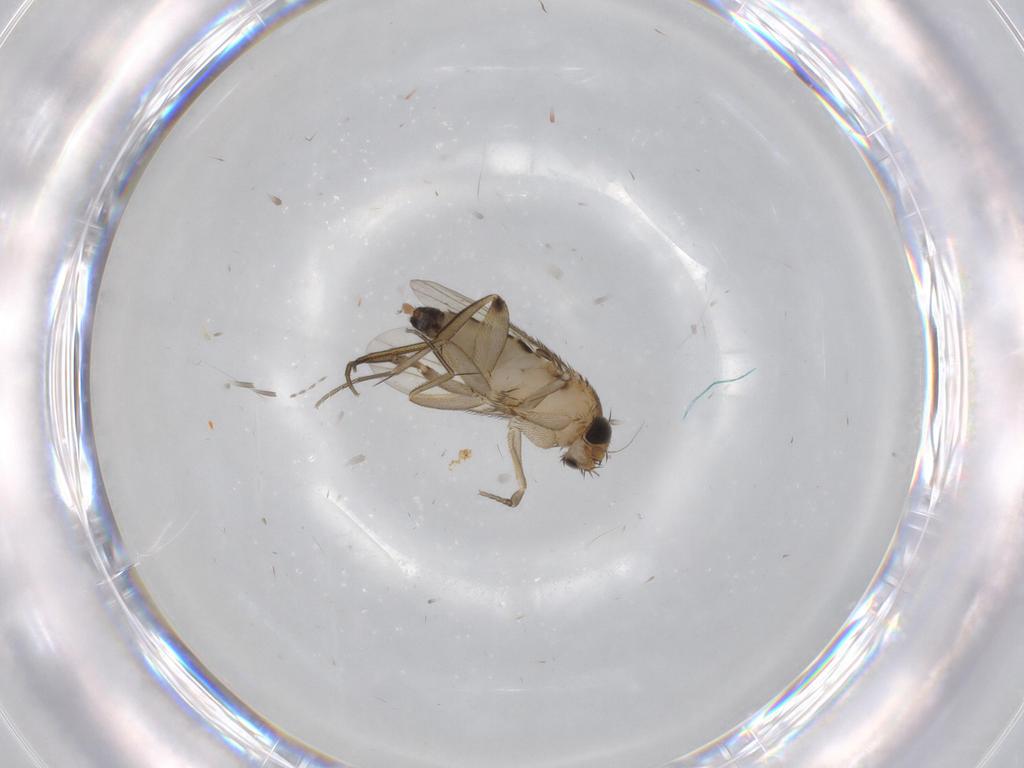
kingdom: Animalia
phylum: Arthropoda
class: Insecta
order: Diptera
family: Phoridae
